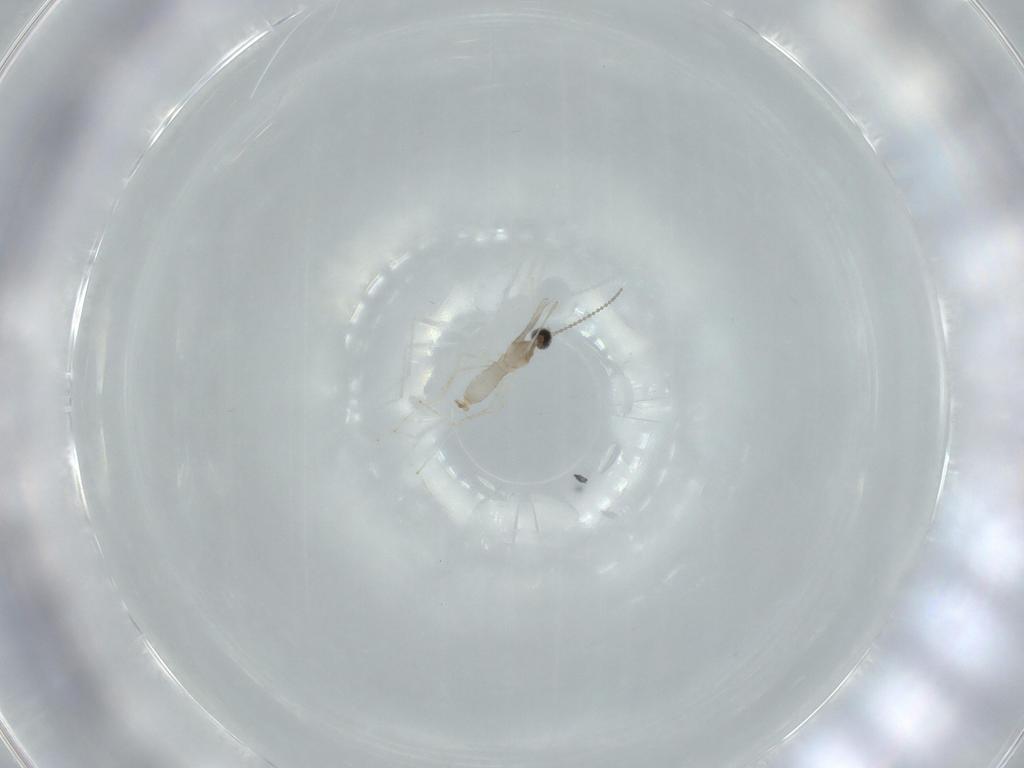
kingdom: Animalia
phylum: Arthropoda
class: Insecta
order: Diptera
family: Cecidomyiidae
